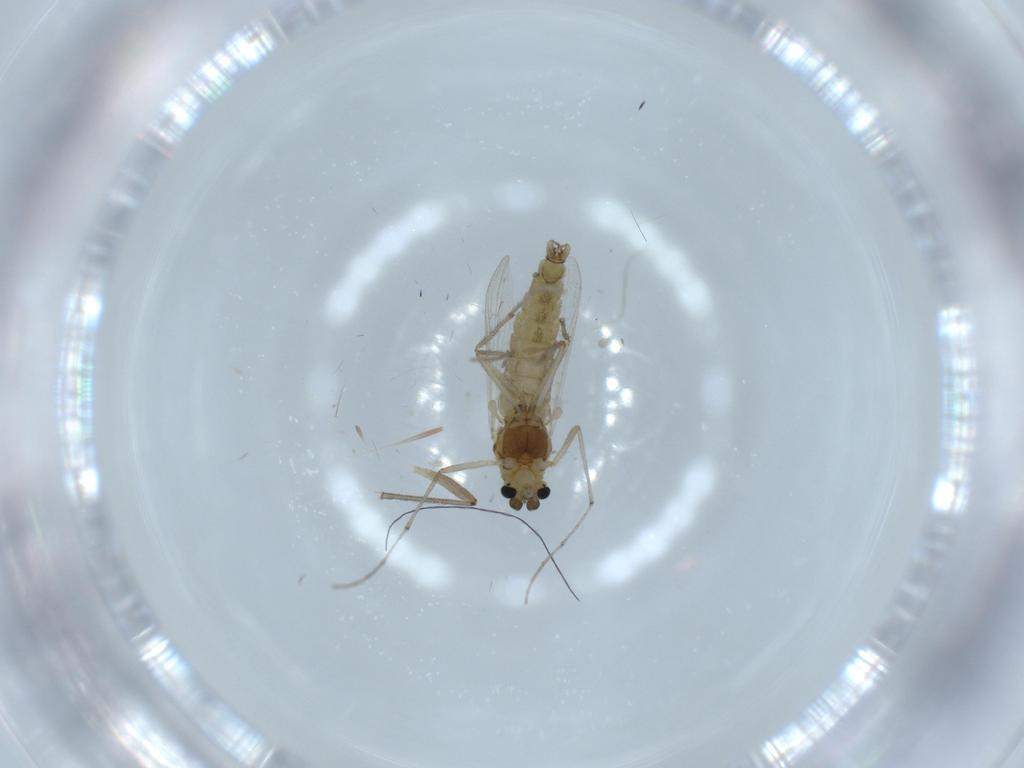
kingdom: Animalia
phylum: Arthropoda
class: Insecta
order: Diptera
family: Chironomidae
